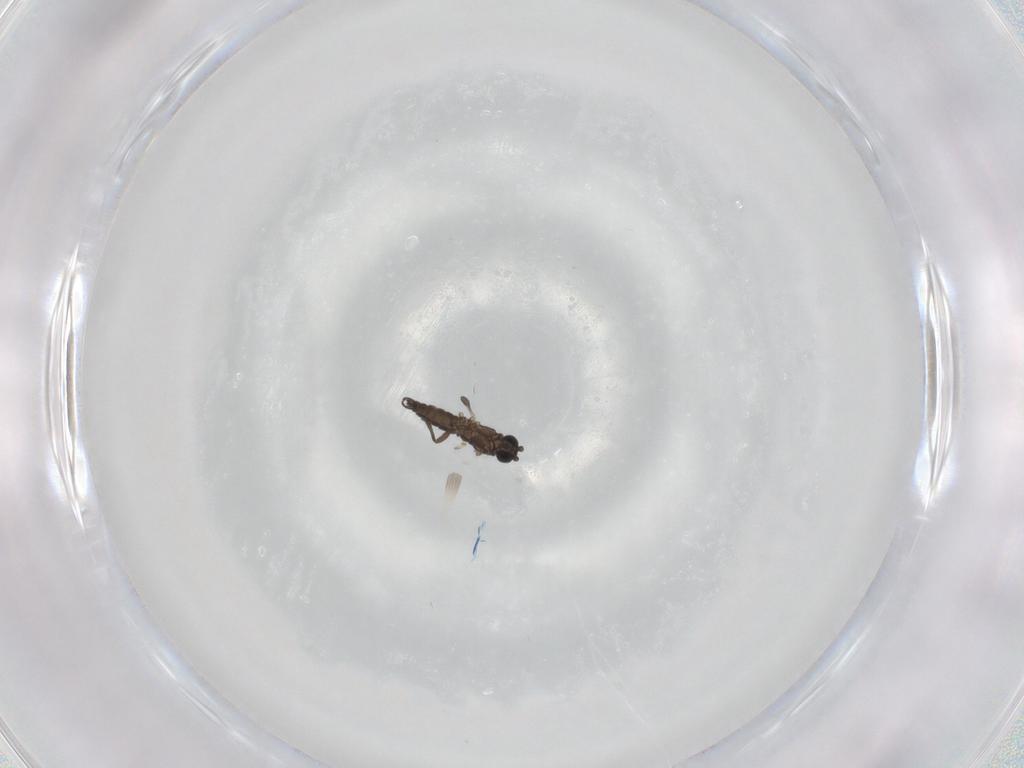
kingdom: Animalia
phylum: Arthropoda
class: Insecta
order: Diptera
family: Sciaridae
